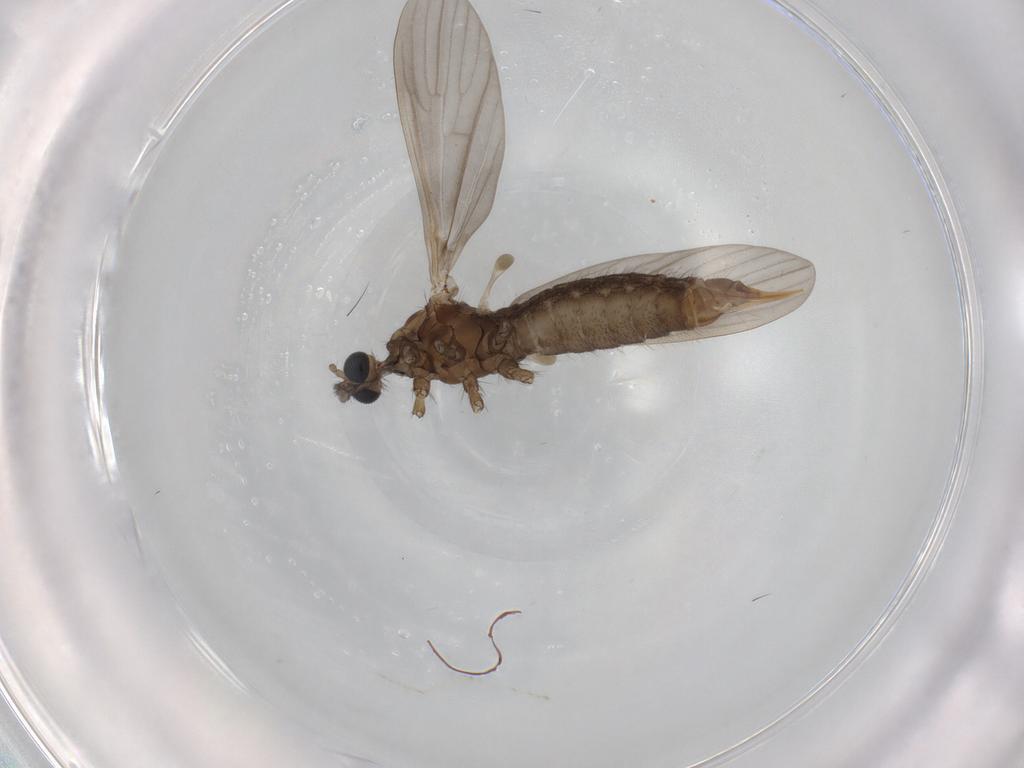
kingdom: Animalia
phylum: Arthropoda
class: Insecta
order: Diptera
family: Limoniidae
